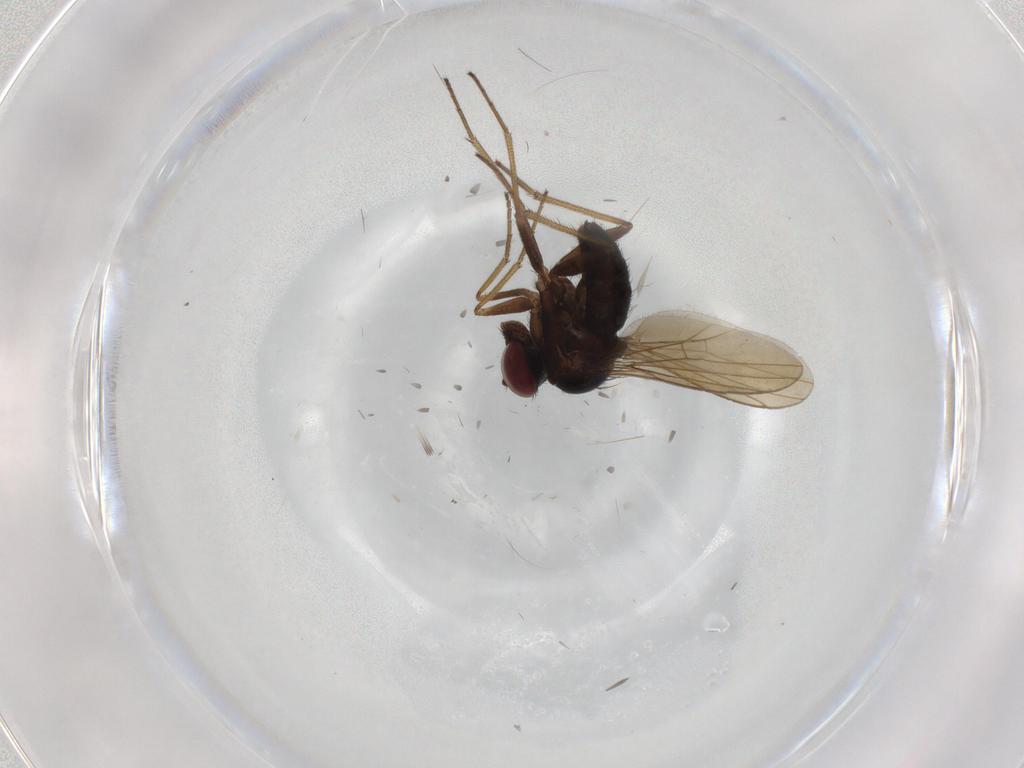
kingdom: Animalia
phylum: Arthropoda
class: Insecta
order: Diptera
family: Dolichopodidae
